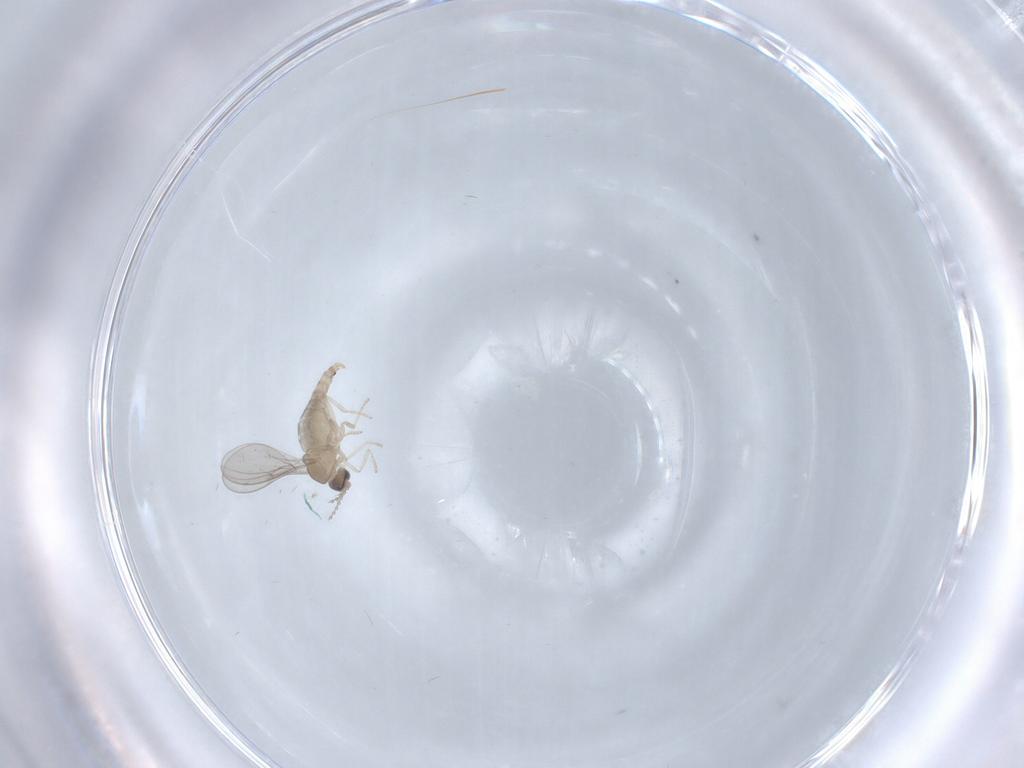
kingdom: Animalia
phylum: Arthropoda
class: Insecta
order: Diptera
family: Cecidomyiidae
